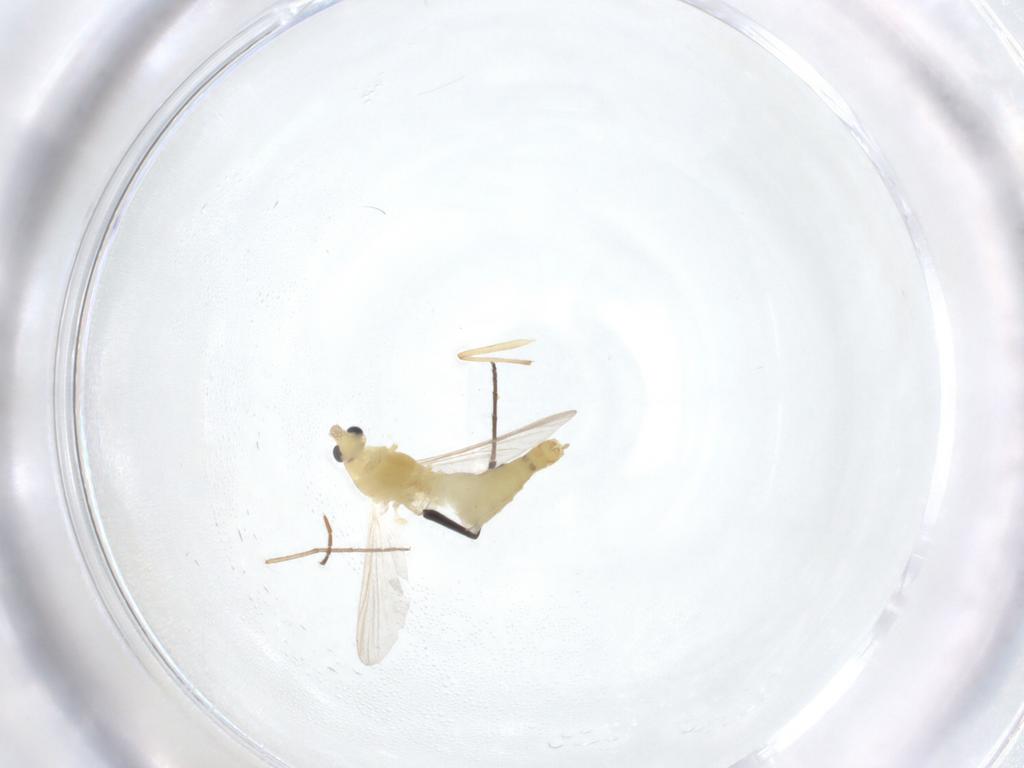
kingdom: Animalia
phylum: Arthropoda
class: Insecta
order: Diptera
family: Chironomidae
